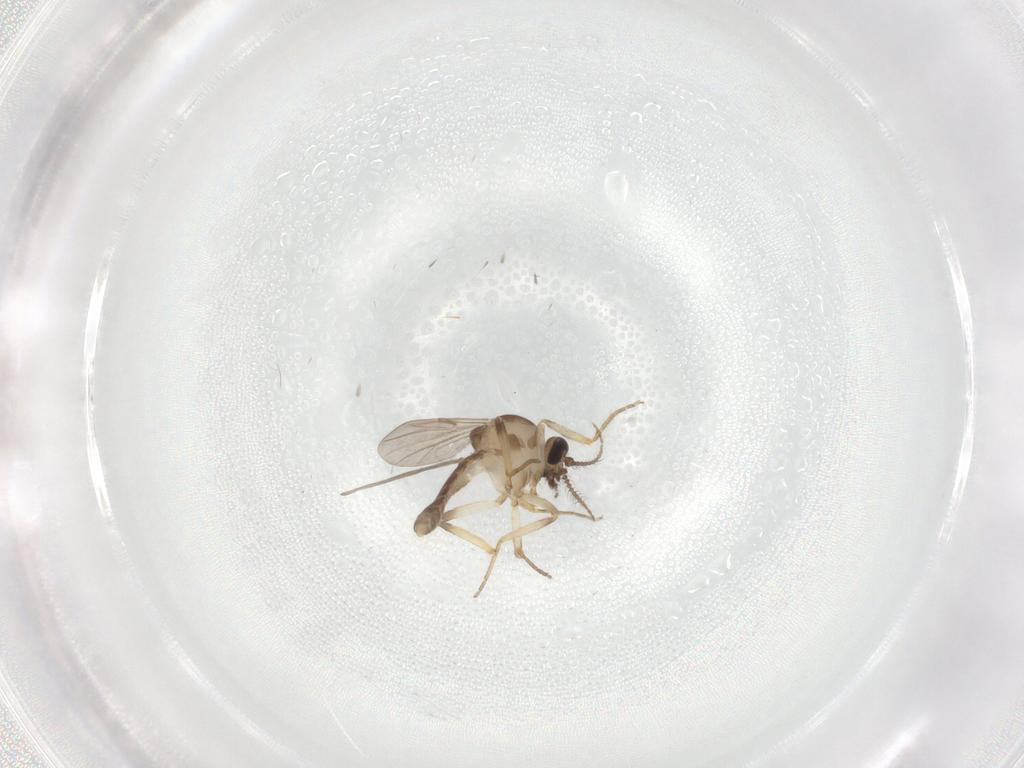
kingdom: Animalia
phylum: Arthropoda
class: Insecta
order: Diptera
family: Ceratopogonidae
